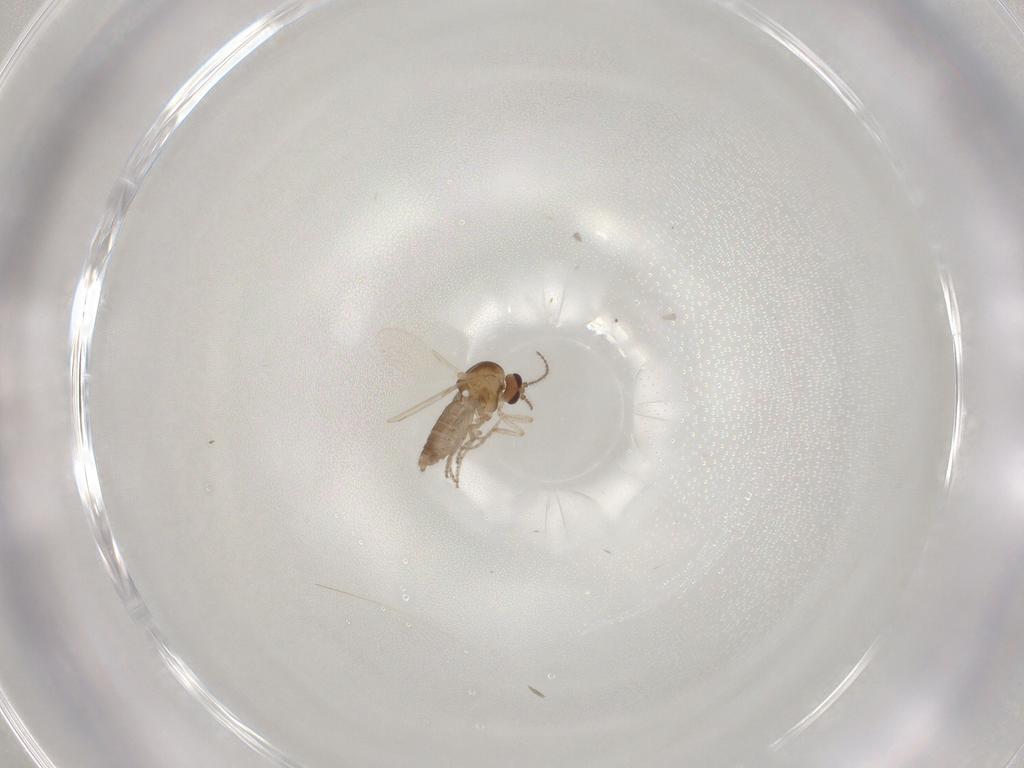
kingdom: Animalia
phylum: Arthropoda
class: Insecta
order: Diptera
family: Ceratopogonidae
